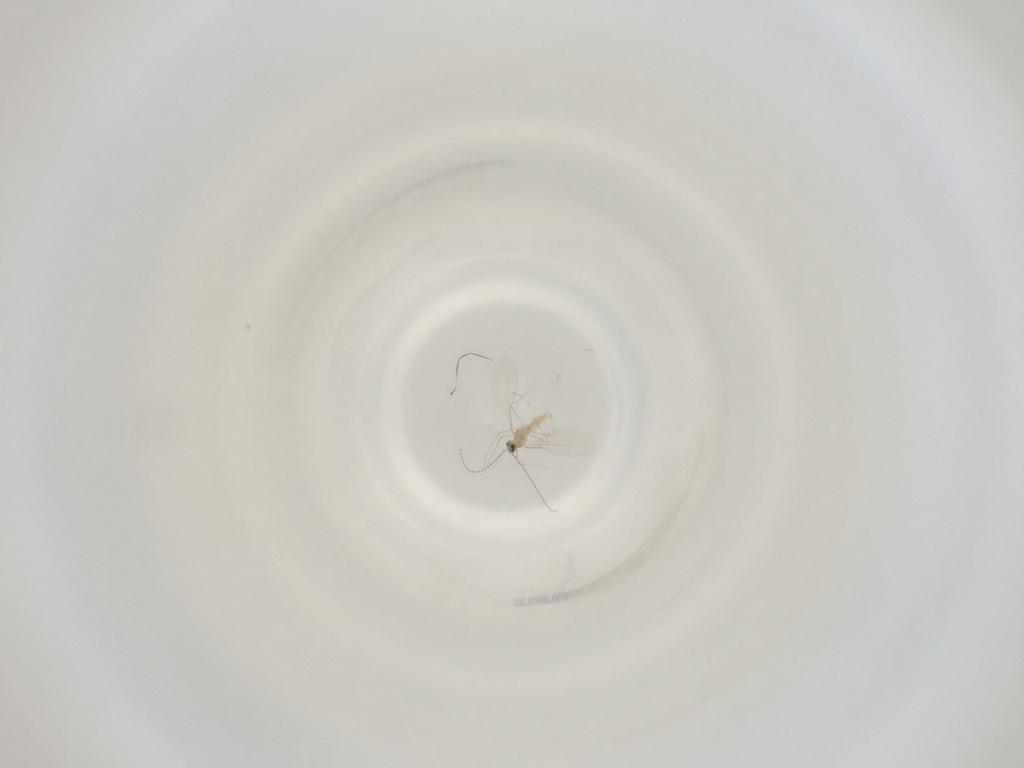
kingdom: Animalia
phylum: Arthropoda
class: Insecta
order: Diptera
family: Cecidomyiidae
